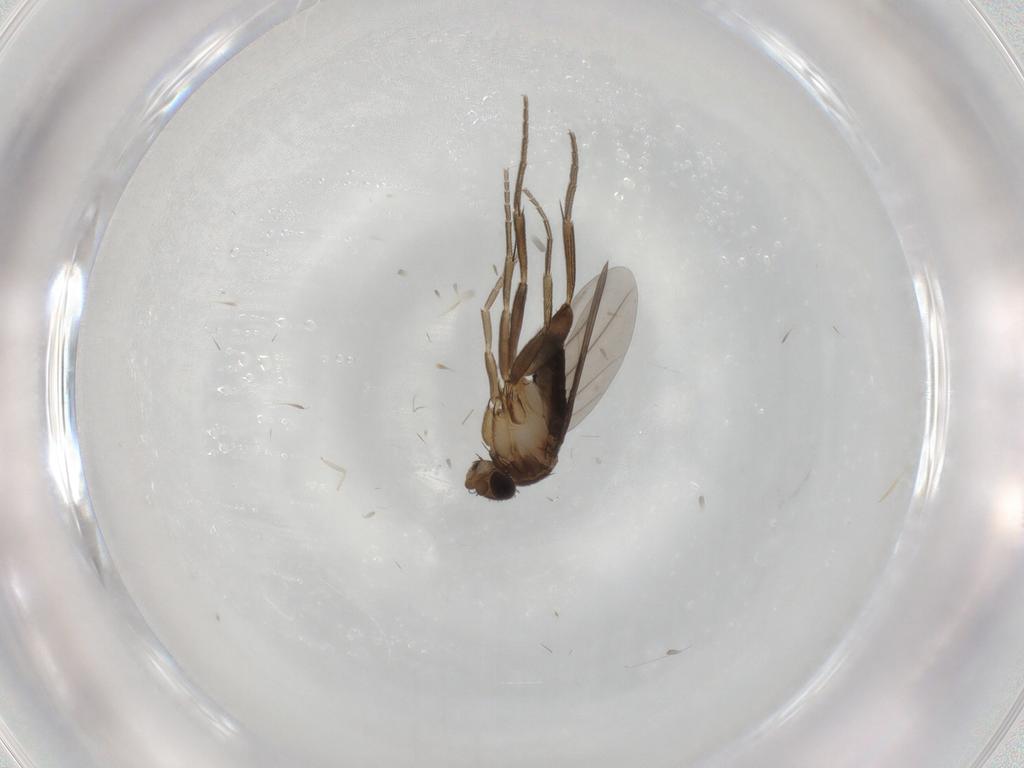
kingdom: Animalia
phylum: Arthropoda
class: Insecta
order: Diptera
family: Phoridae
